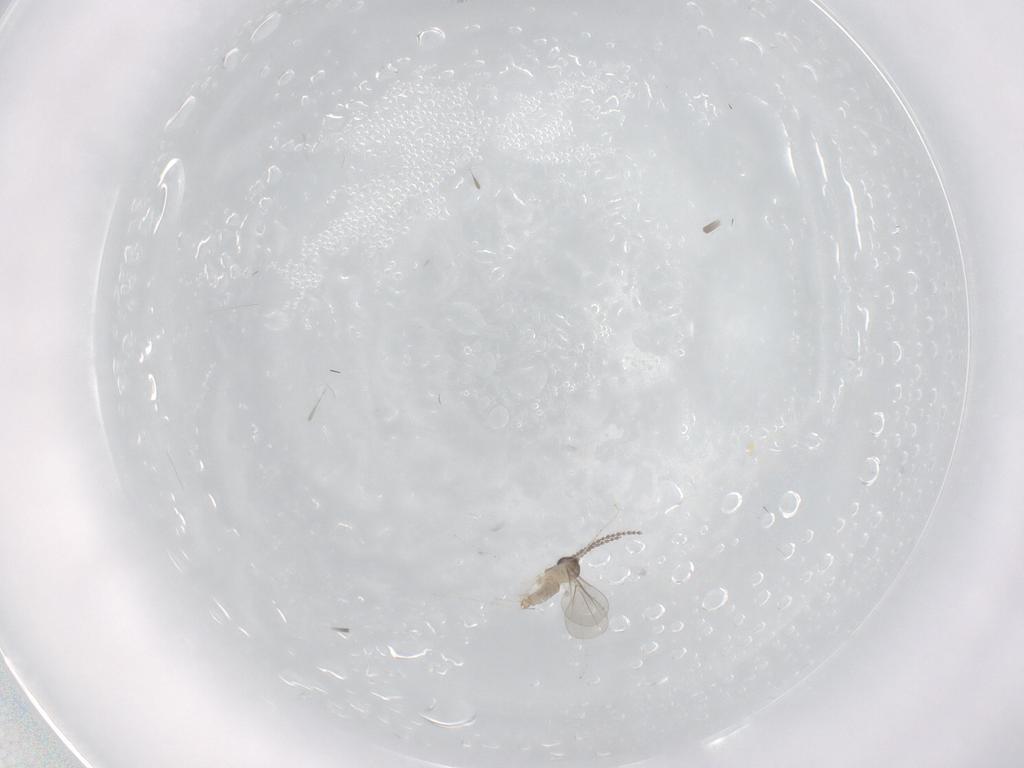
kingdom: Animalia
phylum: Arthropoda
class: Insecta
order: Diptera
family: Cecidomyiidae
